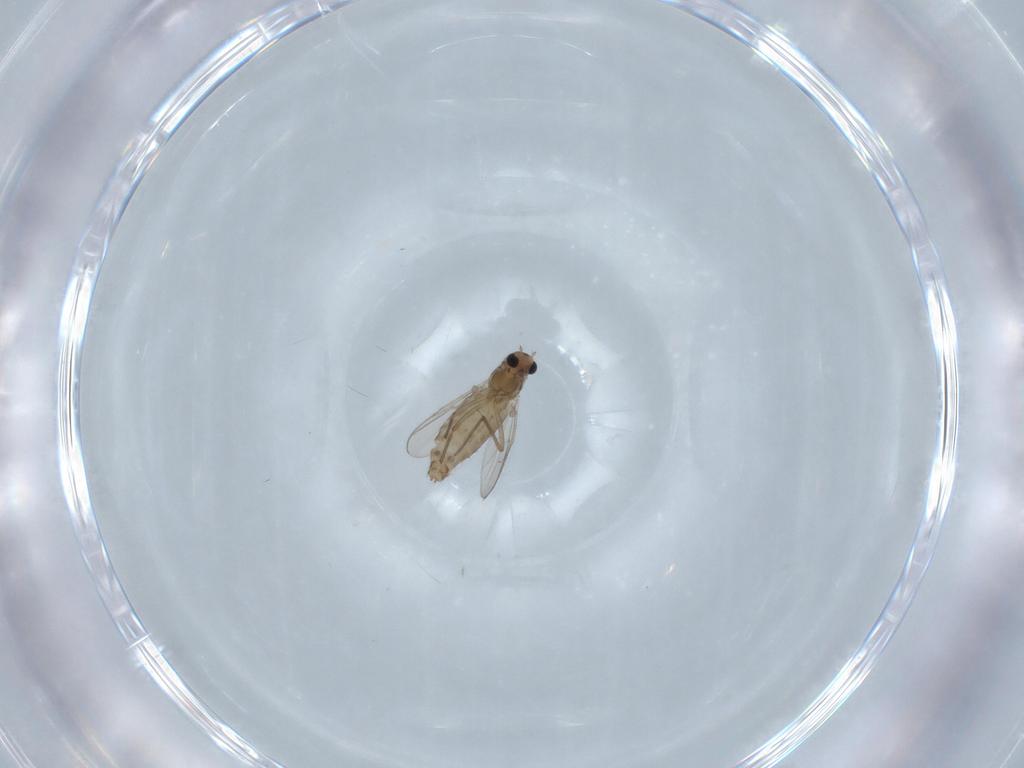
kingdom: Animalia
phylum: Arthropoda
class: Insecta
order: Diptera
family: Chironomidae
